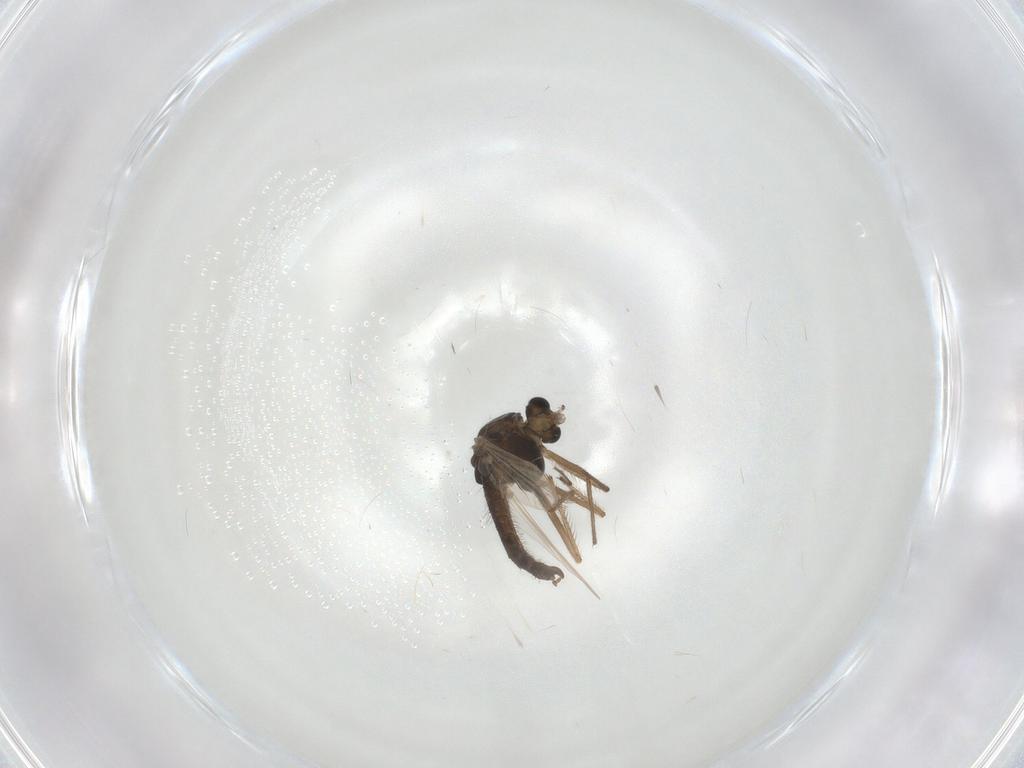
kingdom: Animalia
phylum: Arthropoda
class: Insecta
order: Diptera
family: Chironomidae
